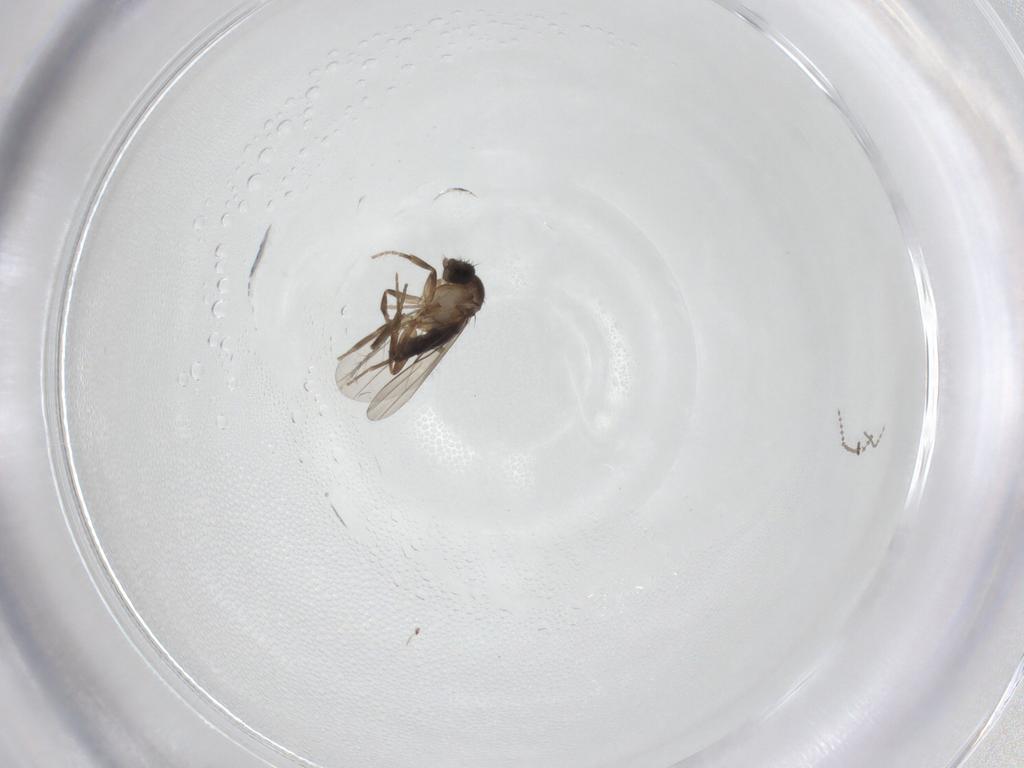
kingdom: Animalia
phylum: Arthropoda
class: Insecta
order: Diptera
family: Limoniidae
